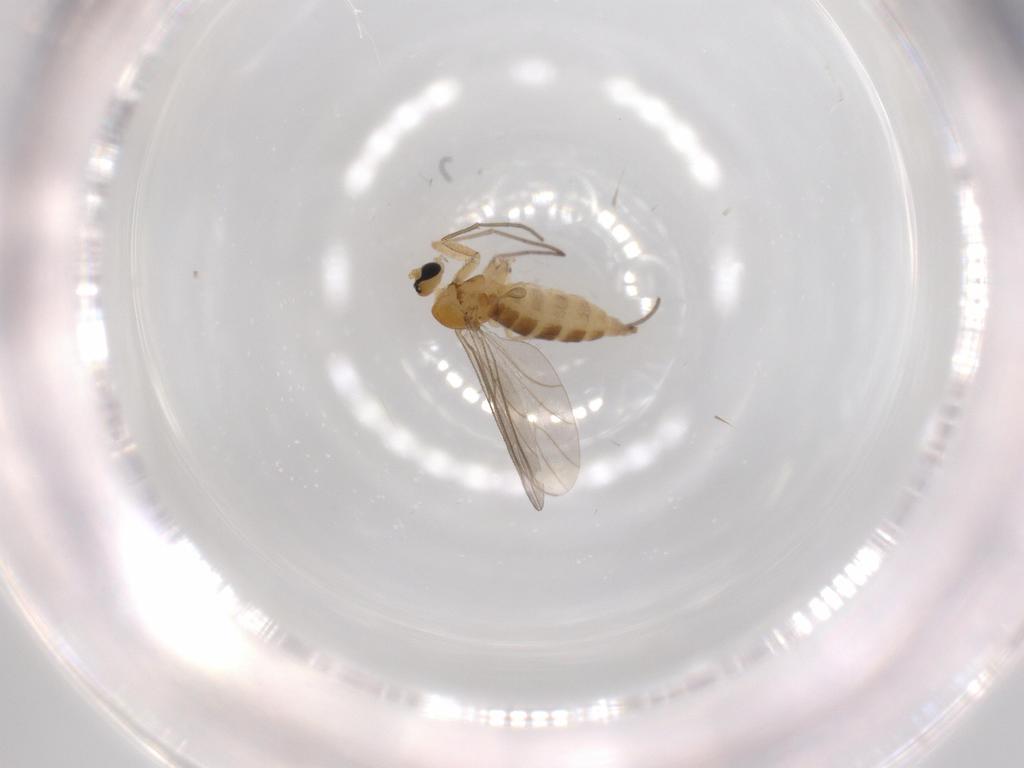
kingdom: Animalia
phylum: Arthropoda
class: Insecta
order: Diptera
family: Sciaridae
